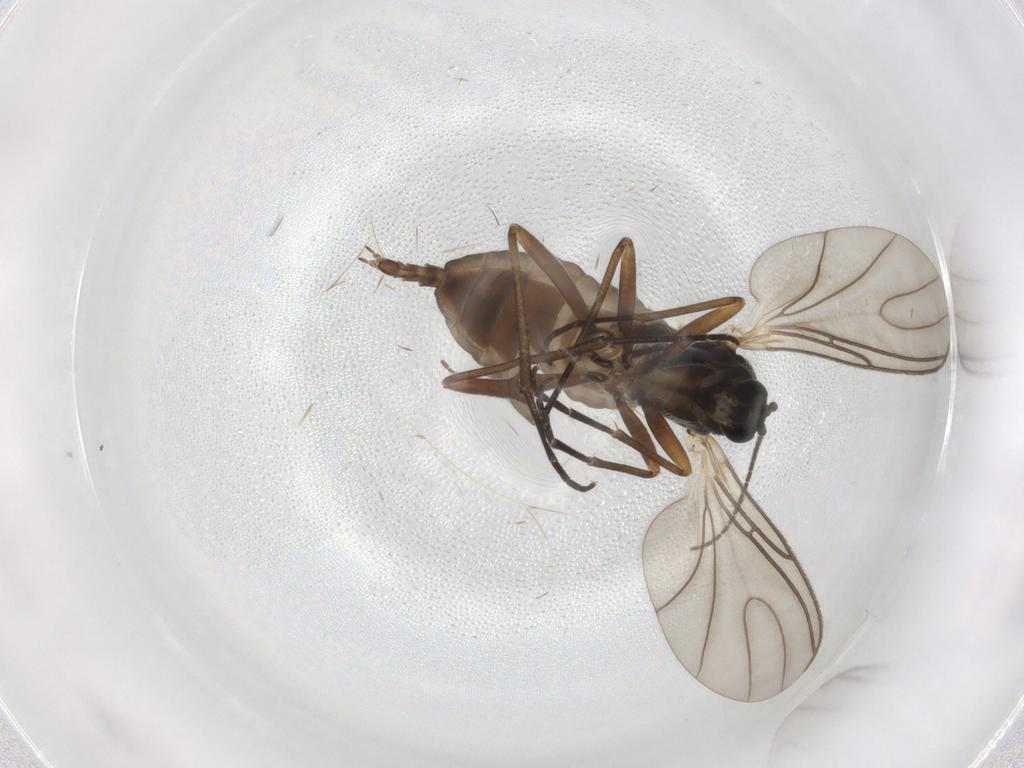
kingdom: Animalia
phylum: Arthropoda
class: Insecta
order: Diptera
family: Sciaridae
